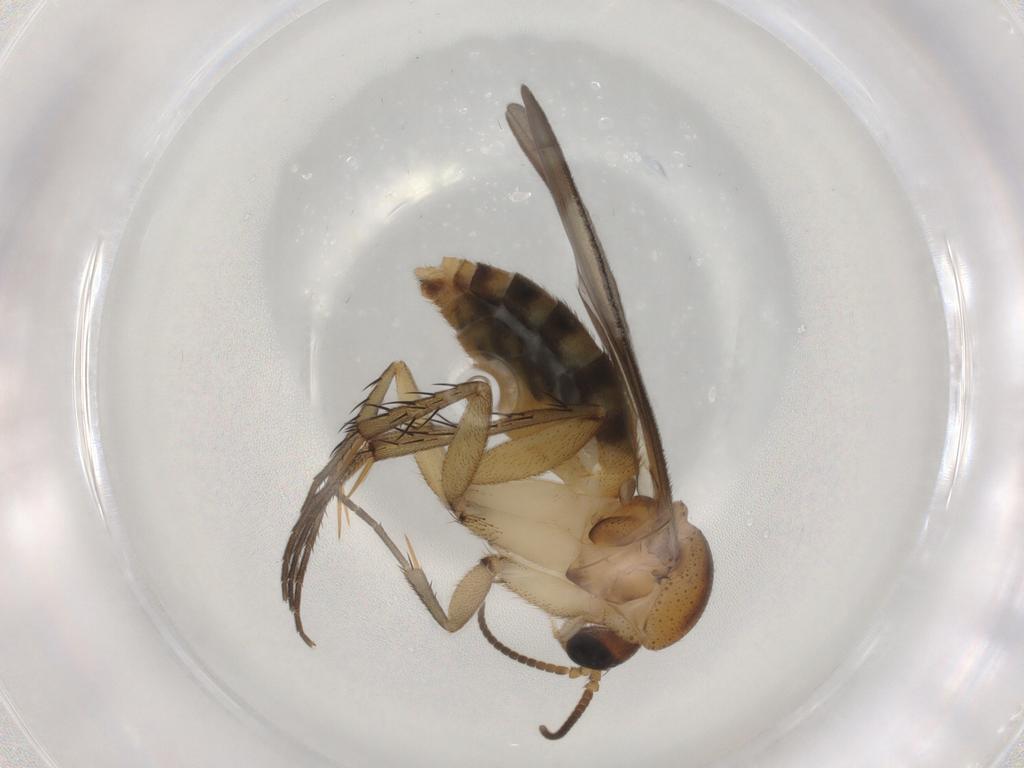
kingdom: Animalia
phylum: Arthropoda
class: Insecta
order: Diptera
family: Mycetophilidae
